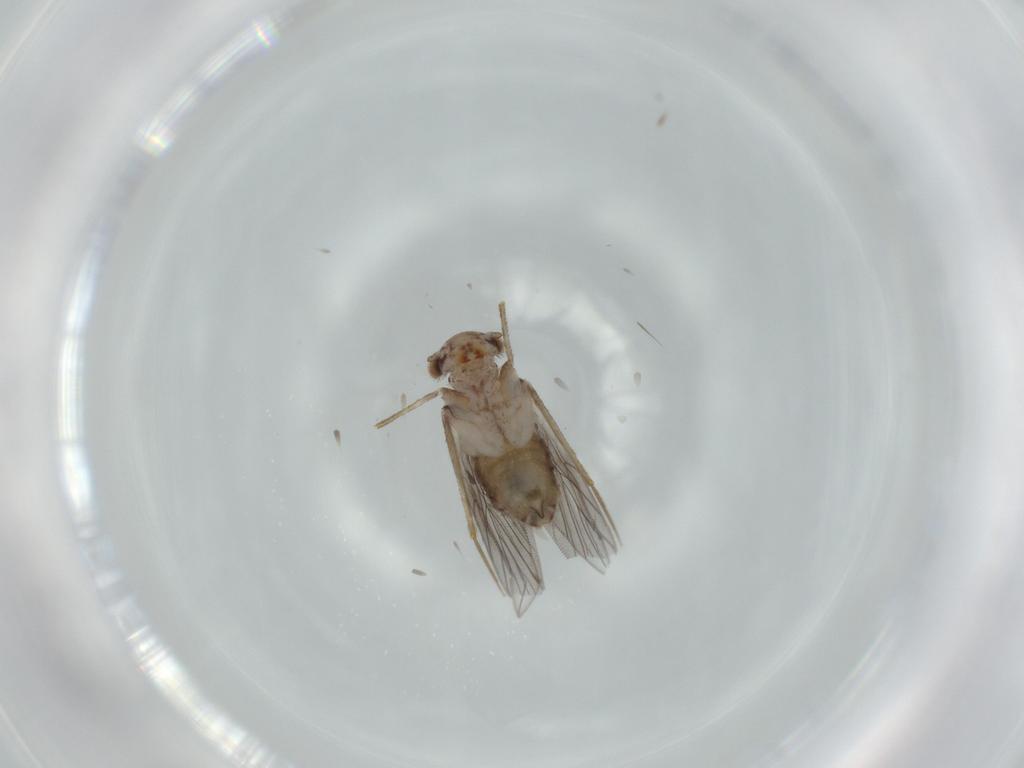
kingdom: Animalia
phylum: Arthropoda
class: Insecta
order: Psocodea
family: Lepidopsocidae
